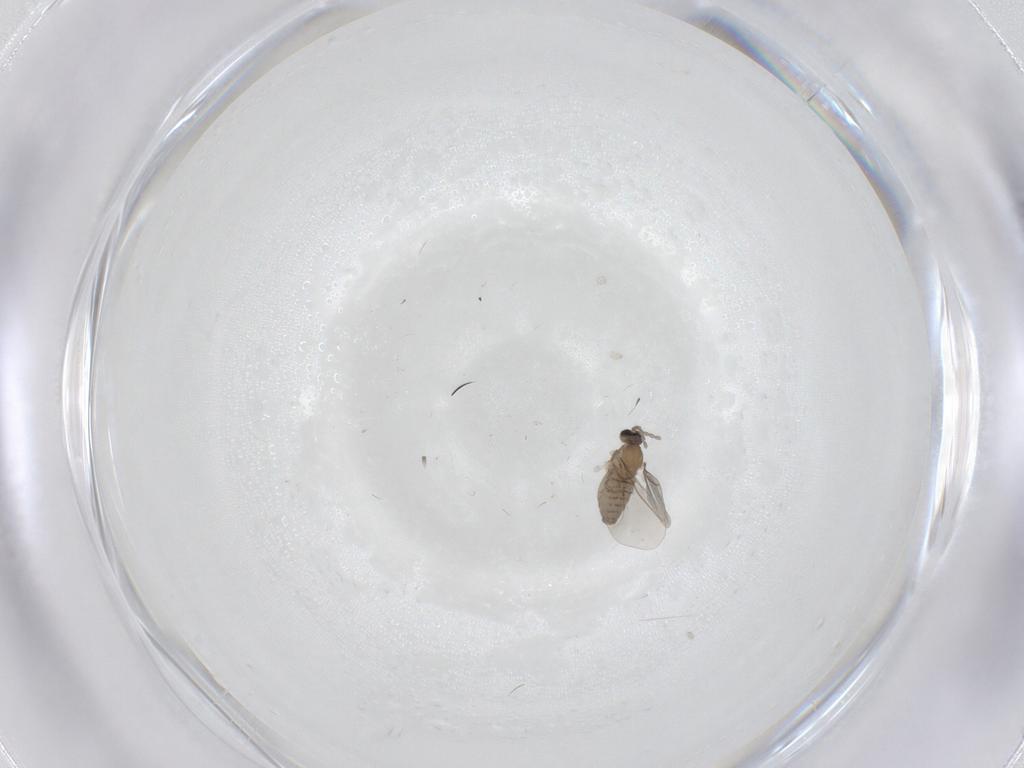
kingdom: Animalia
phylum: Arthropoda
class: Insecta
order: Diptera
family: Cecidomyiidae
